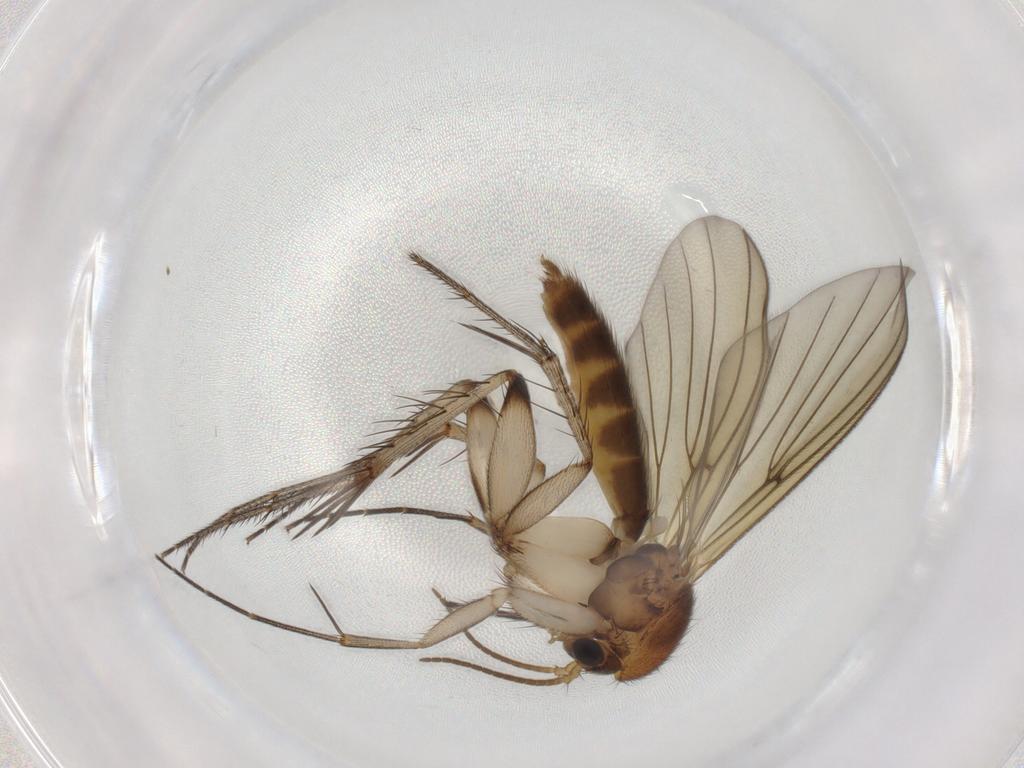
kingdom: Animalia
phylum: Arthropoda
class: Insecta
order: Diptera
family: Sciaridae
